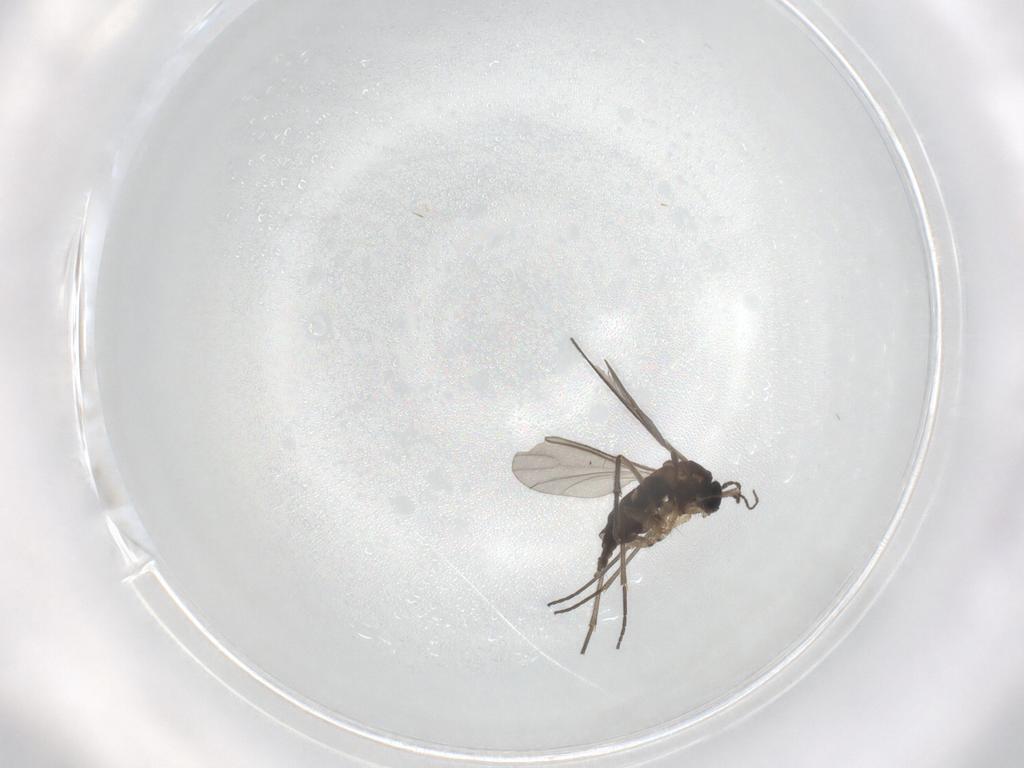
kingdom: Animalia
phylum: Arthropoda
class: Insecta
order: Diptera
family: Sciaridae
